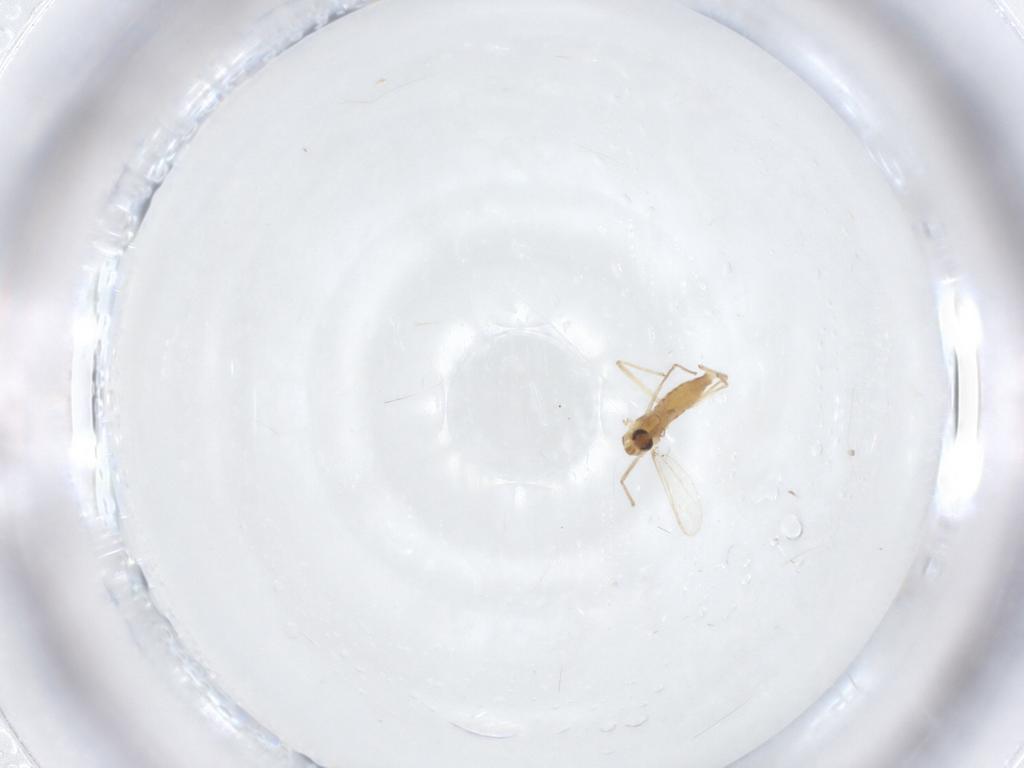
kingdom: Animalia
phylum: Arthropoda
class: Insecta
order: Diptera
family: Chironomidae
